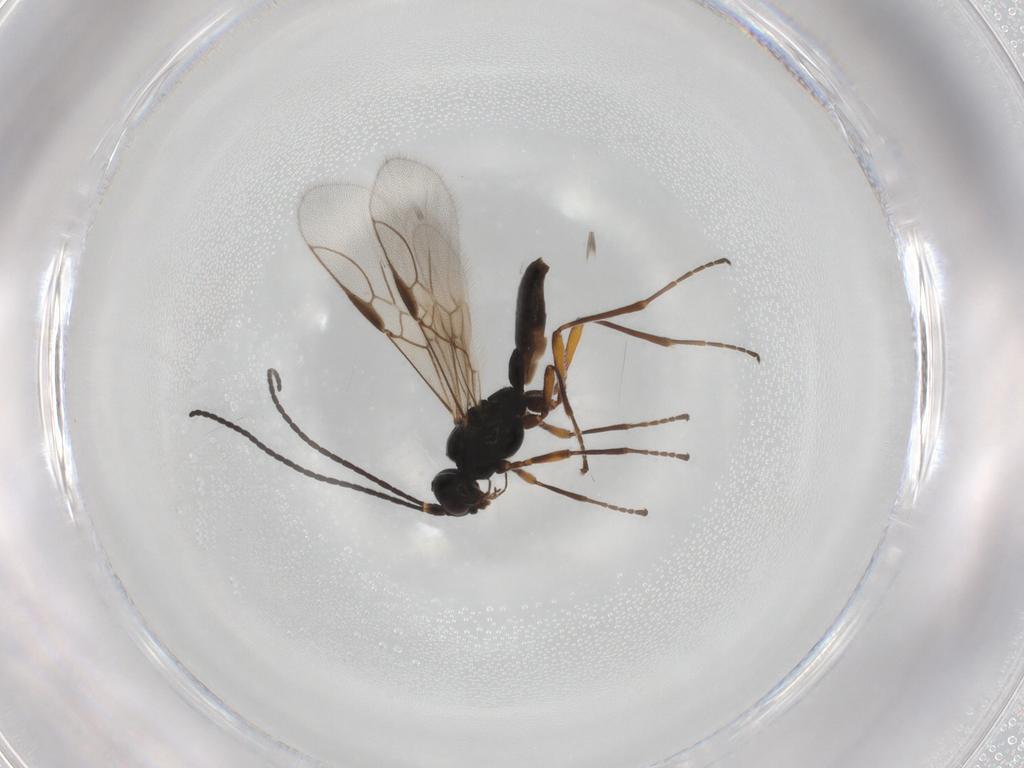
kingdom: Animalia
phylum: Arthropoda
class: Insecta
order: Hymenoptera
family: Braconidae
